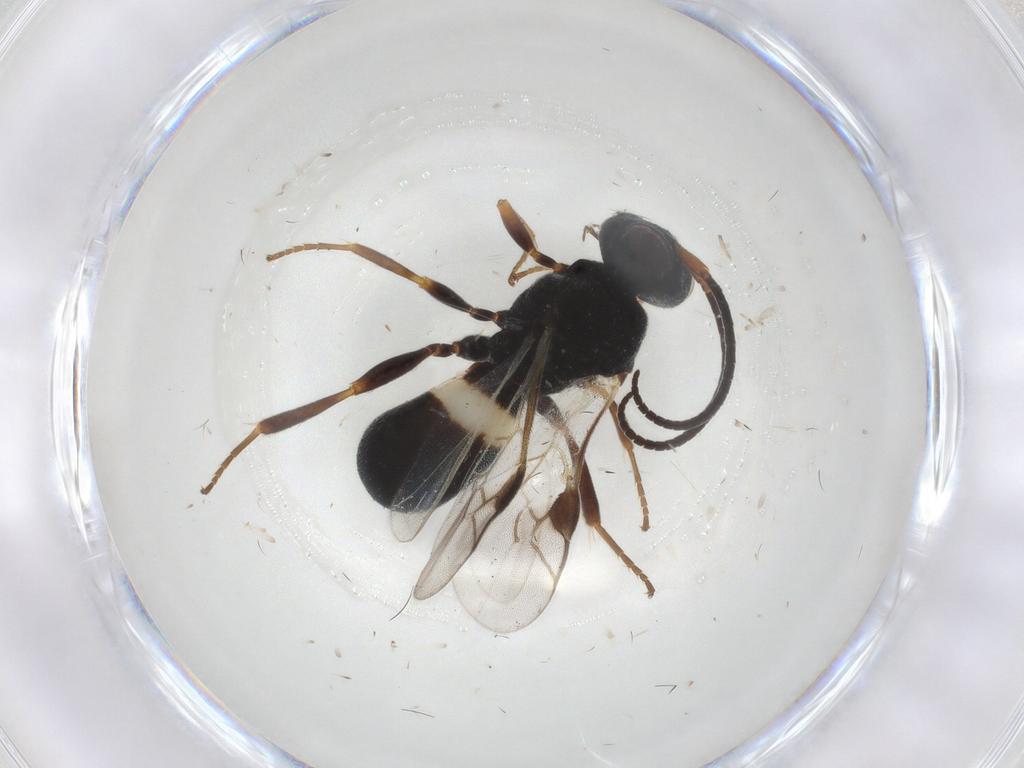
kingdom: Animalia
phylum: Arthropoda
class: Insecta
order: Hymenoptera
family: Braconidae
